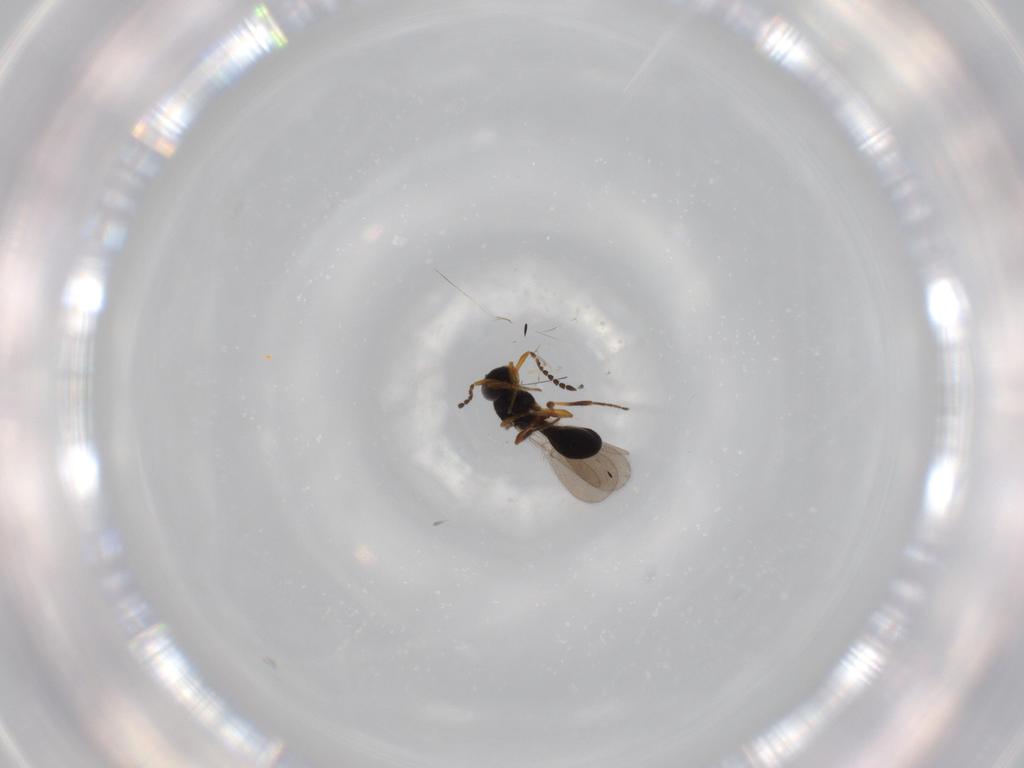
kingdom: Animalia
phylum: Arthropoda
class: Insecta
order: Hymenoptera
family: Platygastridae
